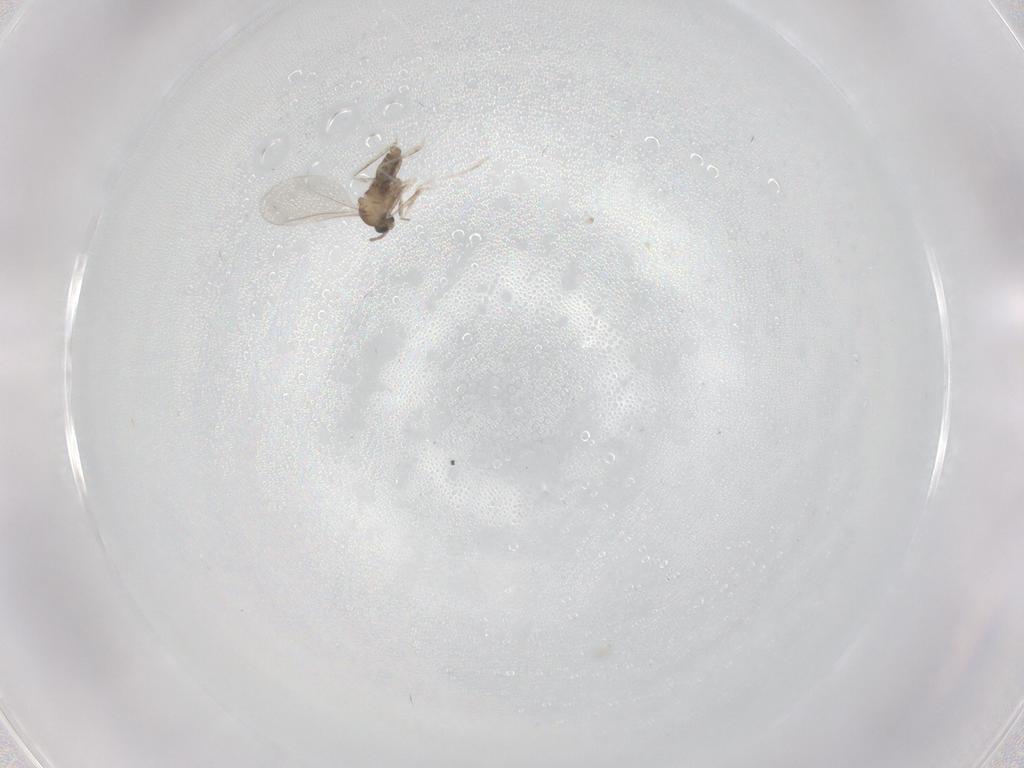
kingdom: Animalia
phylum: Arthropoda
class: Insecta
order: Diptera
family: Cecidomyiidae
